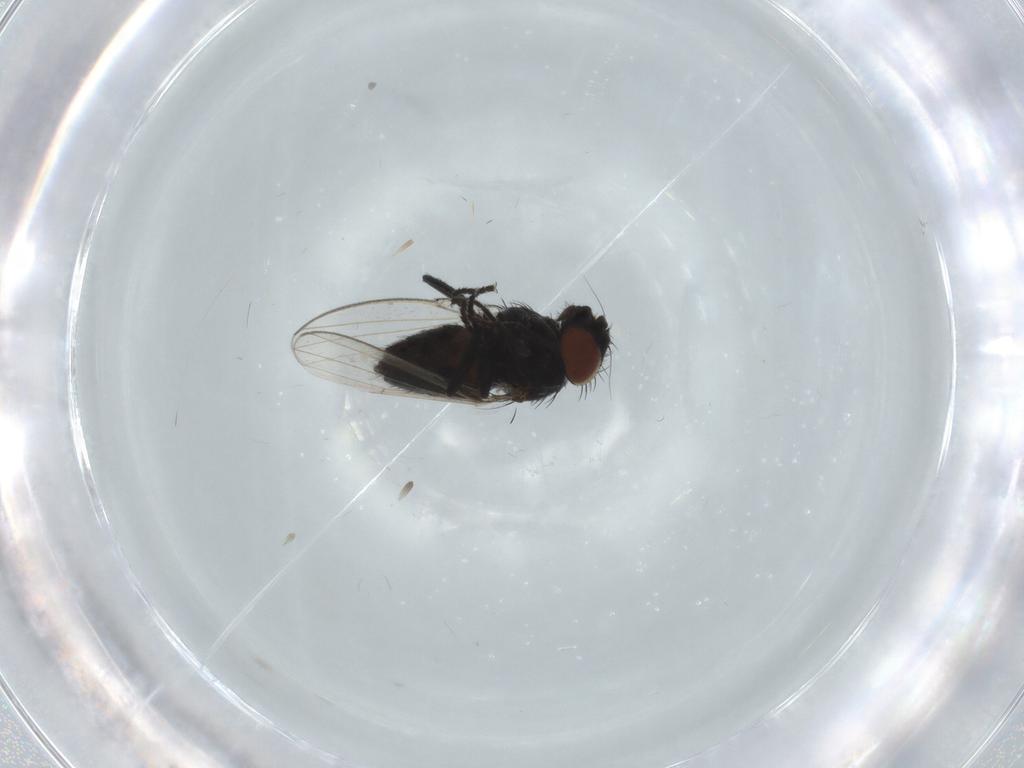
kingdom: Animalia
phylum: Arthropoda
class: Insecta
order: Diptera
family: Milichiidae
